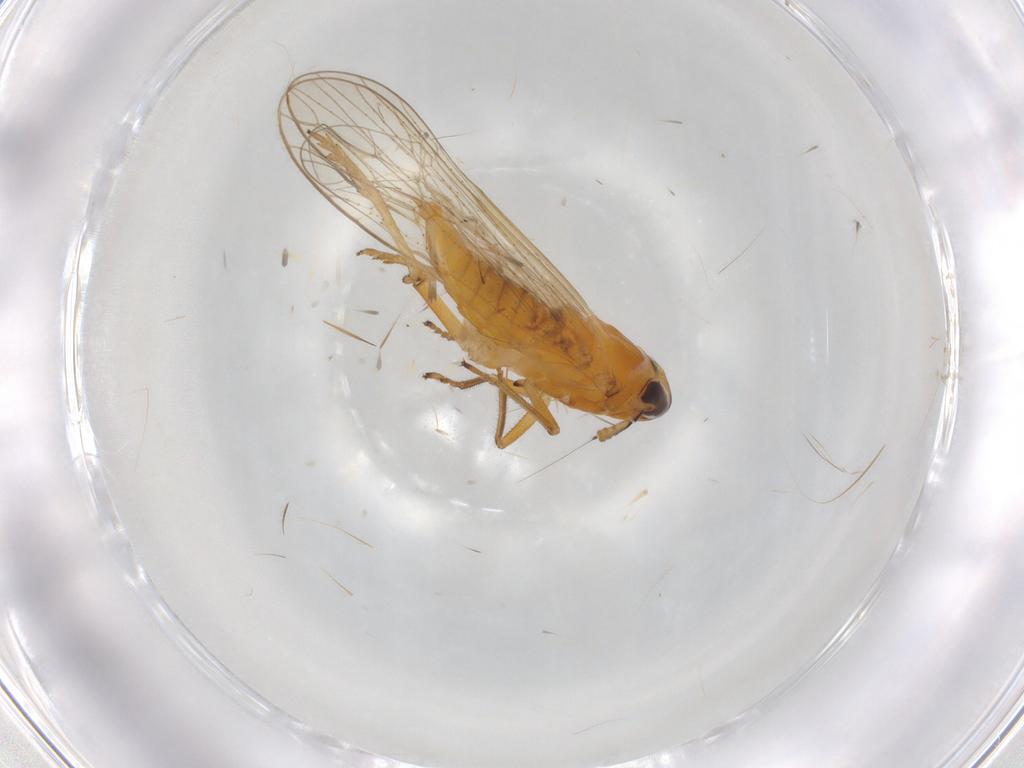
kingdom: Animalia
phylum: Arthropoda
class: Insecta
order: Hemiptera
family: Delphacidae
